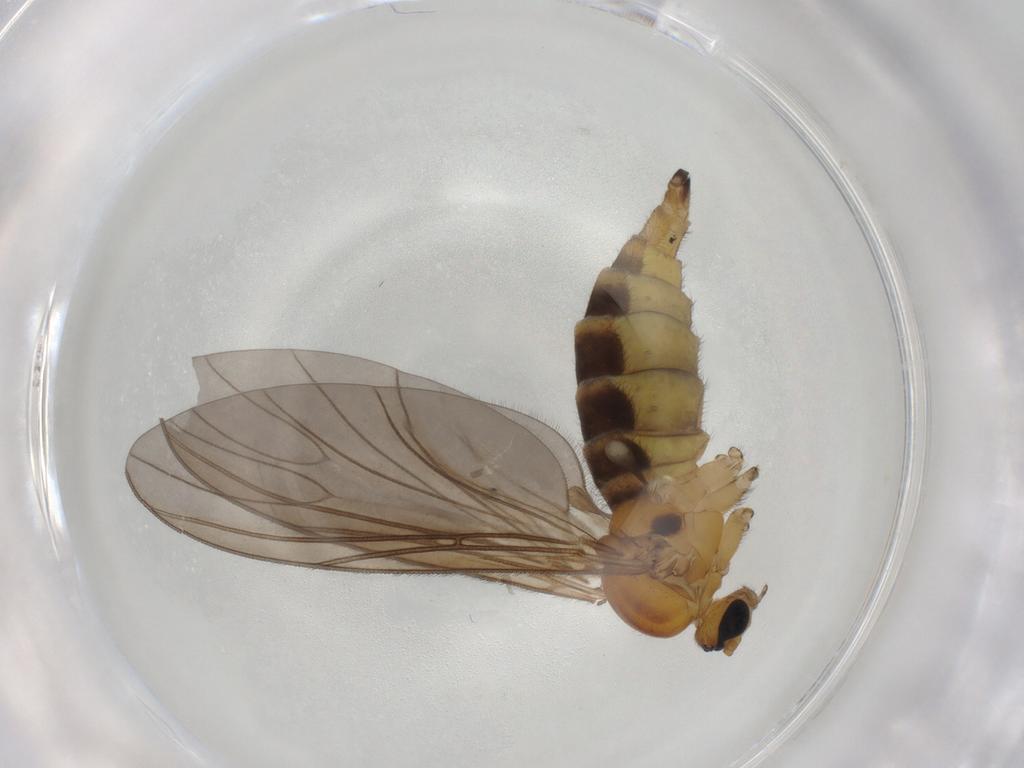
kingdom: Animalia
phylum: Arthropoda
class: Insecta
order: Diptera
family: Sciaridae
